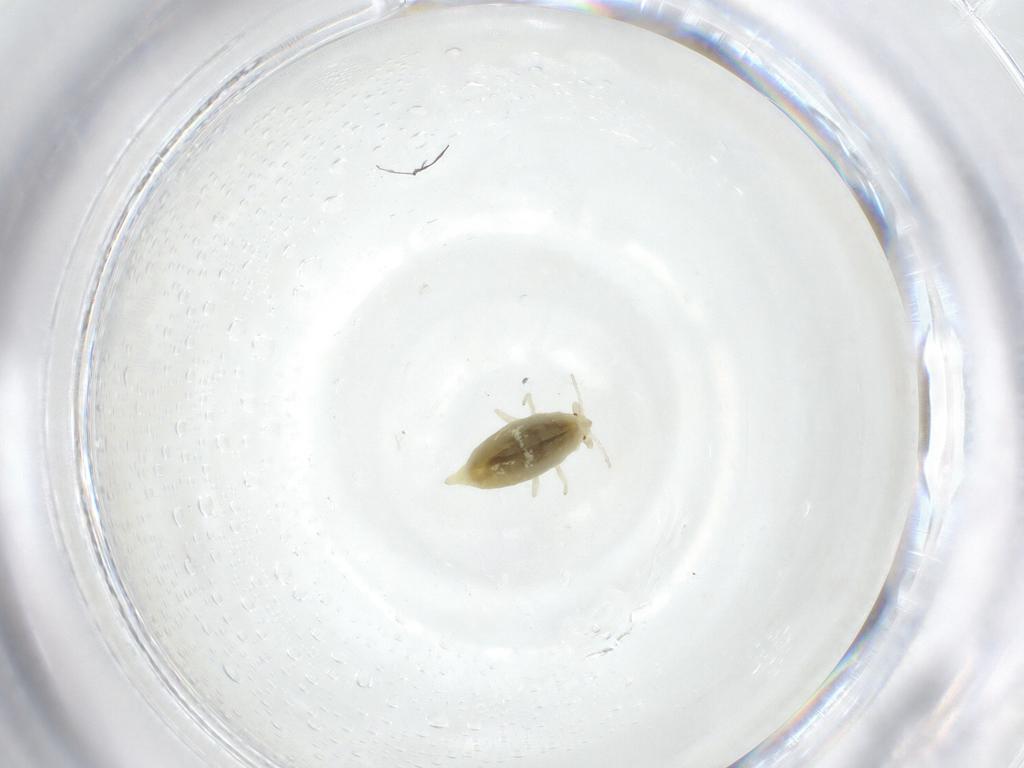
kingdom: Animalia
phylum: Arthropoda
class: Insecta
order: Neuroptera
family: Coniopterygidae
